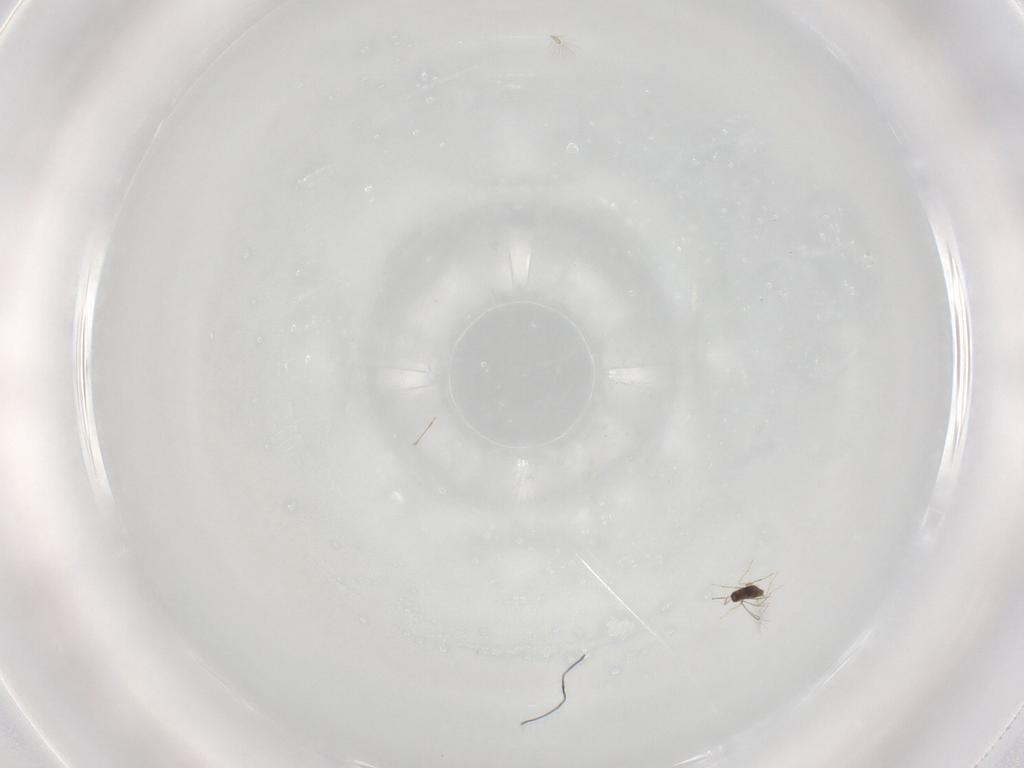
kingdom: Animalia
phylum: Arthropoda
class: Insecta
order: Hymenoptera
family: Mymaridae
